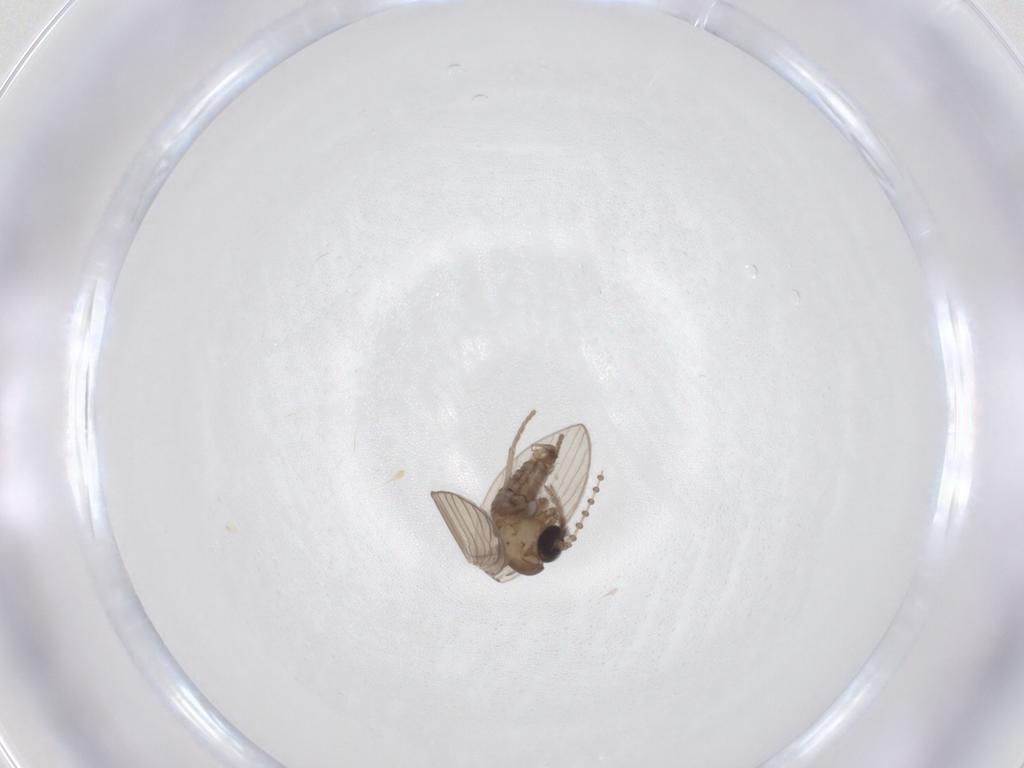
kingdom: Animalia
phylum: Arthropoda
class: Insecta
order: Diptera
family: Psychodidae
